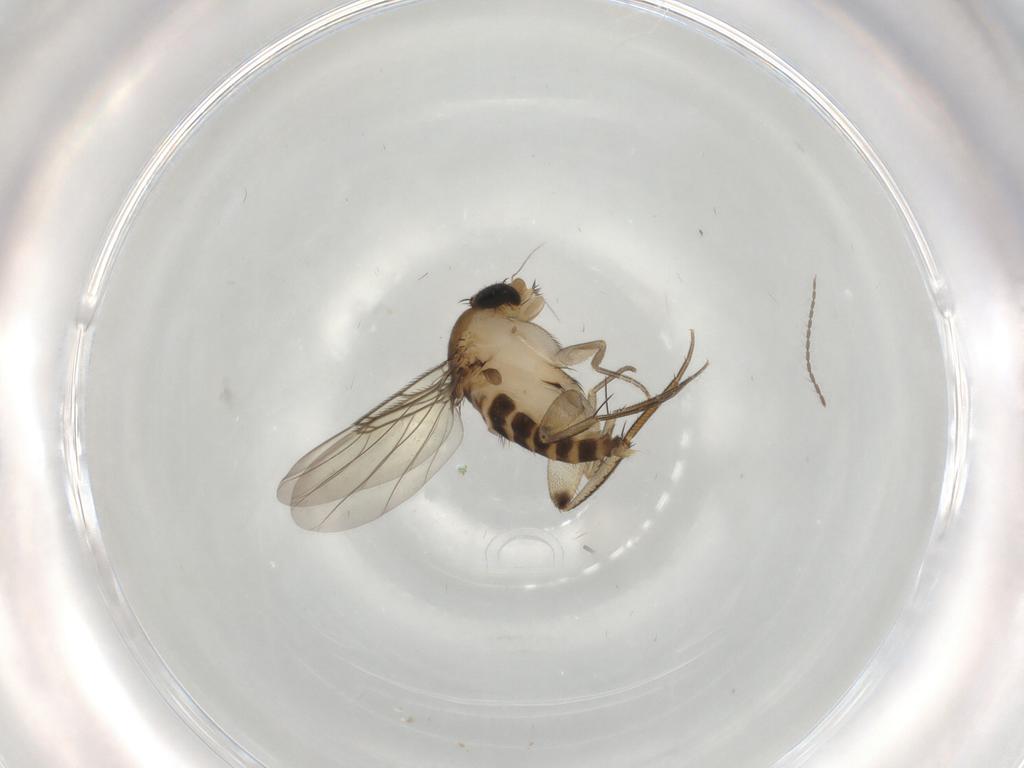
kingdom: Animalia
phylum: Arthropoda
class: Insecta
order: Diptera
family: Phoridae
